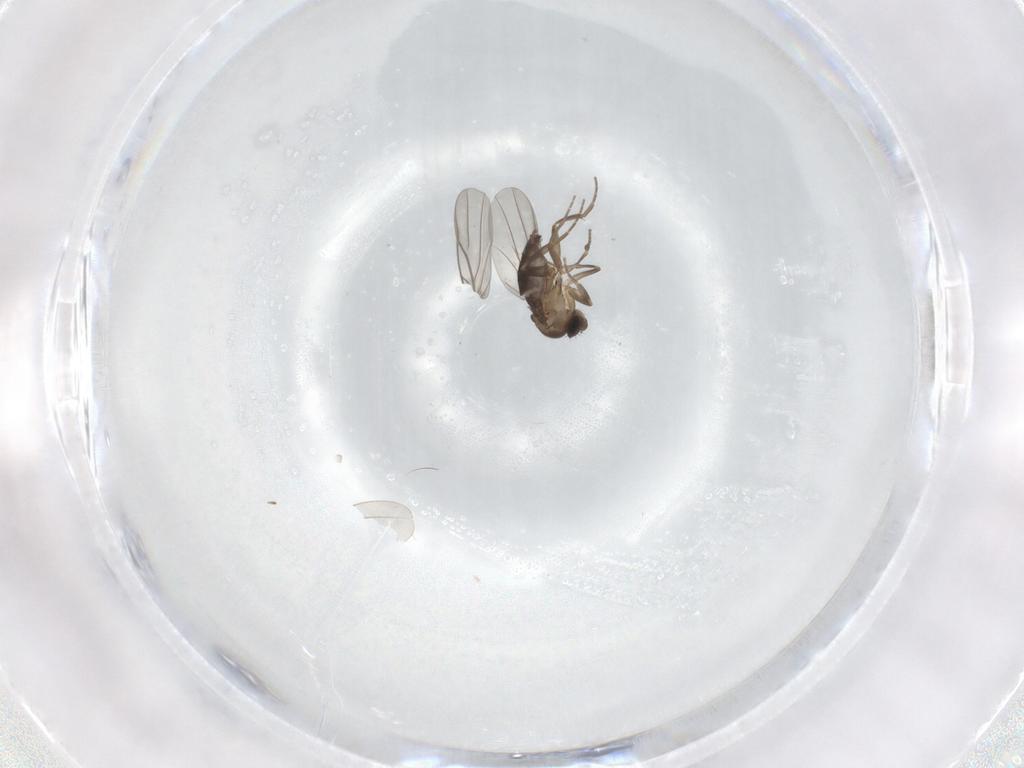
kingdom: Animalia
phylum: Arthropoda
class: Insecta
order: Diptera
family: Phoridae
